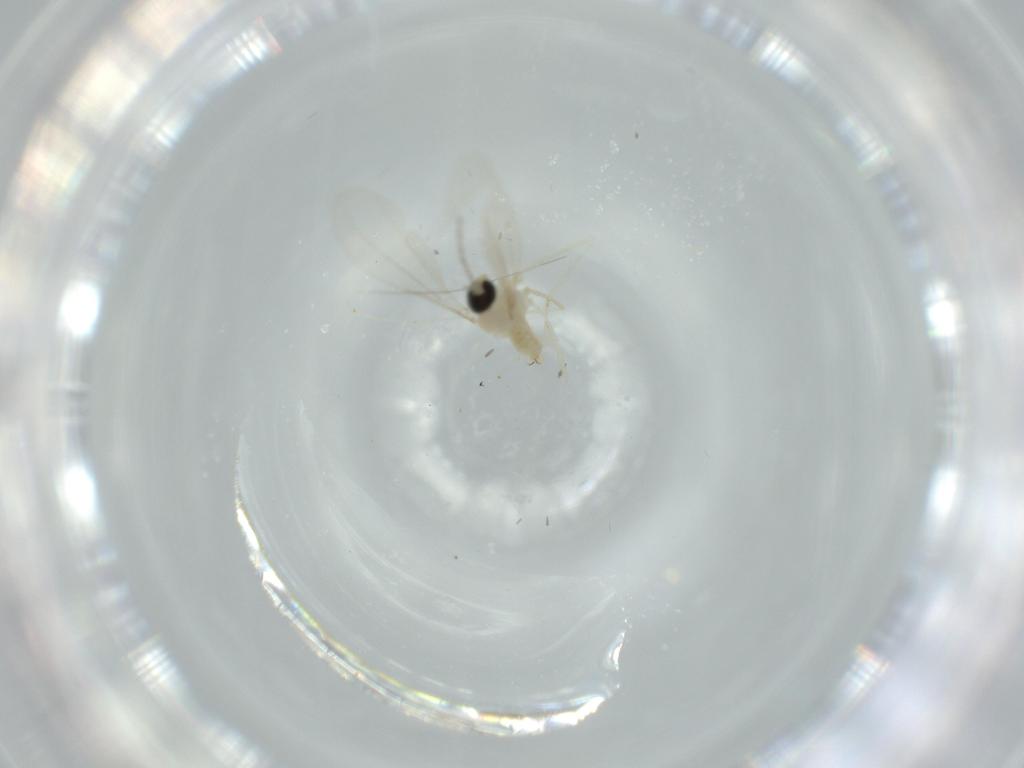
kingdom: Animalia
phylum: Arthropoda
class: Insecta
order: Diptera
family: Cecidomyiidae
